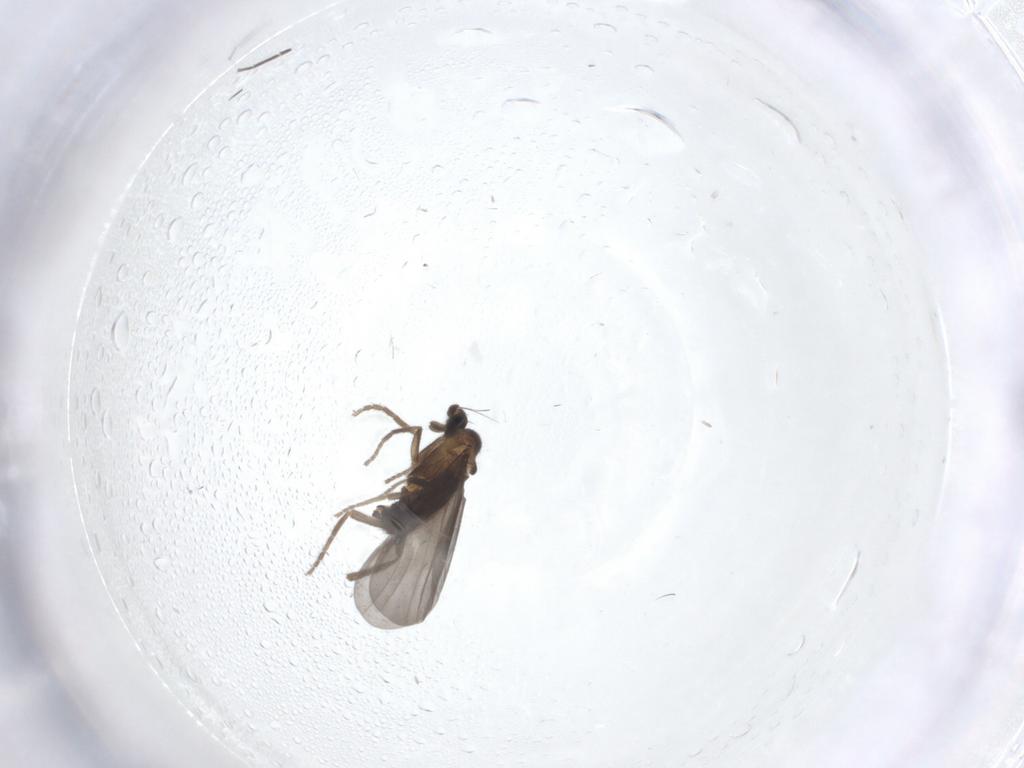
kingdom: Animalia
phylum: Arthropoda
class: Insecta
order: Diptera
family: Phoridae
